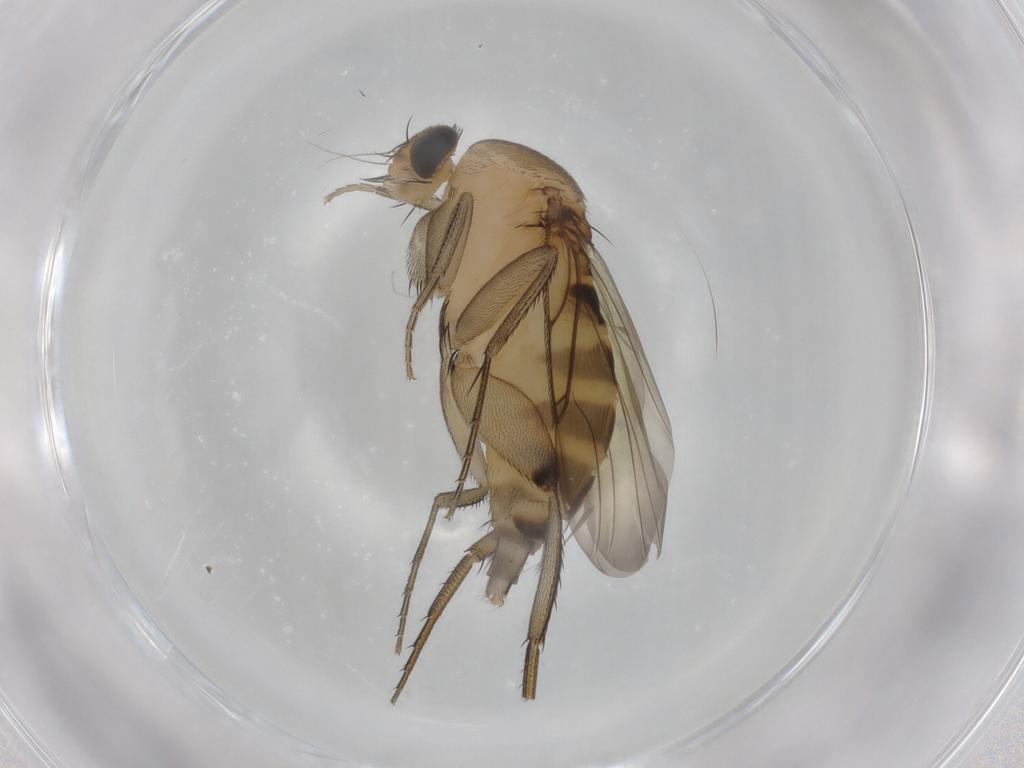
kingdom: Animalia
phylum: Arthropoda
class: Insecta
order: Diptera
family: Phoridae
